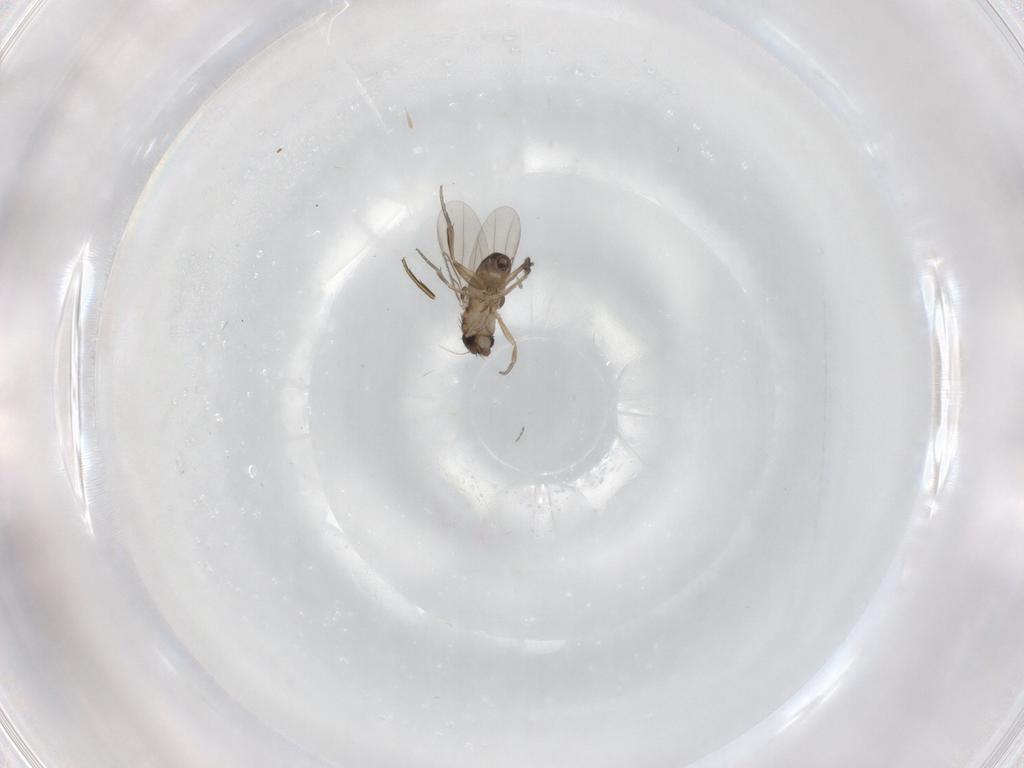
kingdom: Animalia
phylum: Arthropoda
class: Insecta
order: Diptera
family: Phoridae
